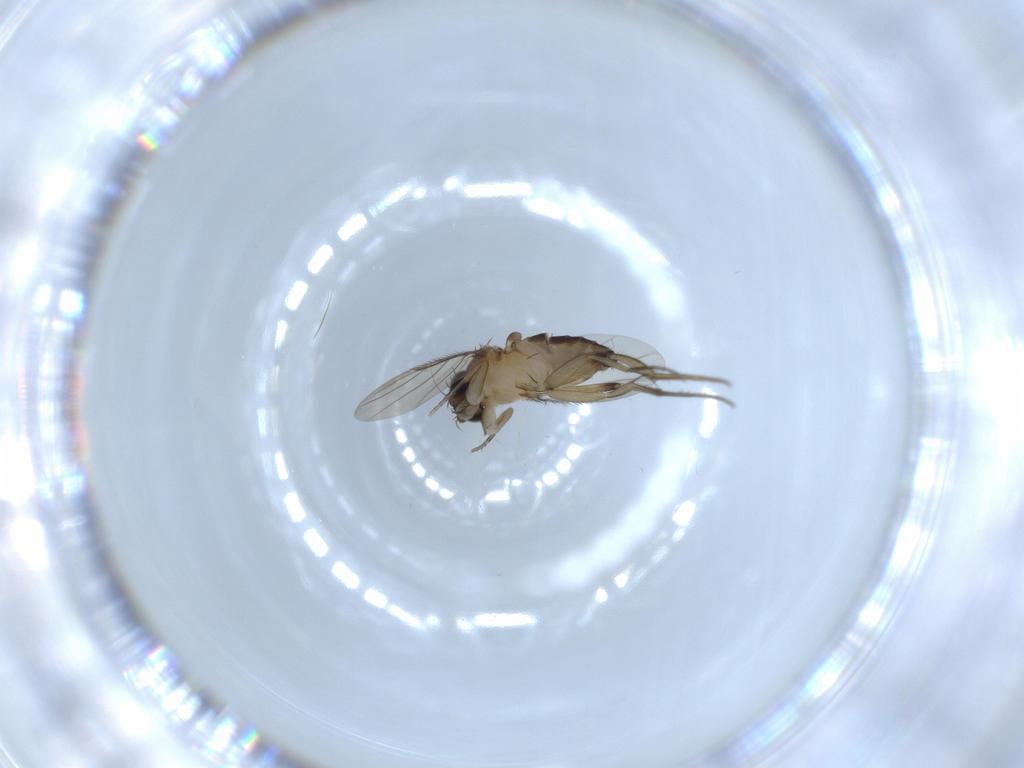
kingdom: Animalia
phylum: Arthropoda
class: Insecta
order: Diptera
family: Phoridae
